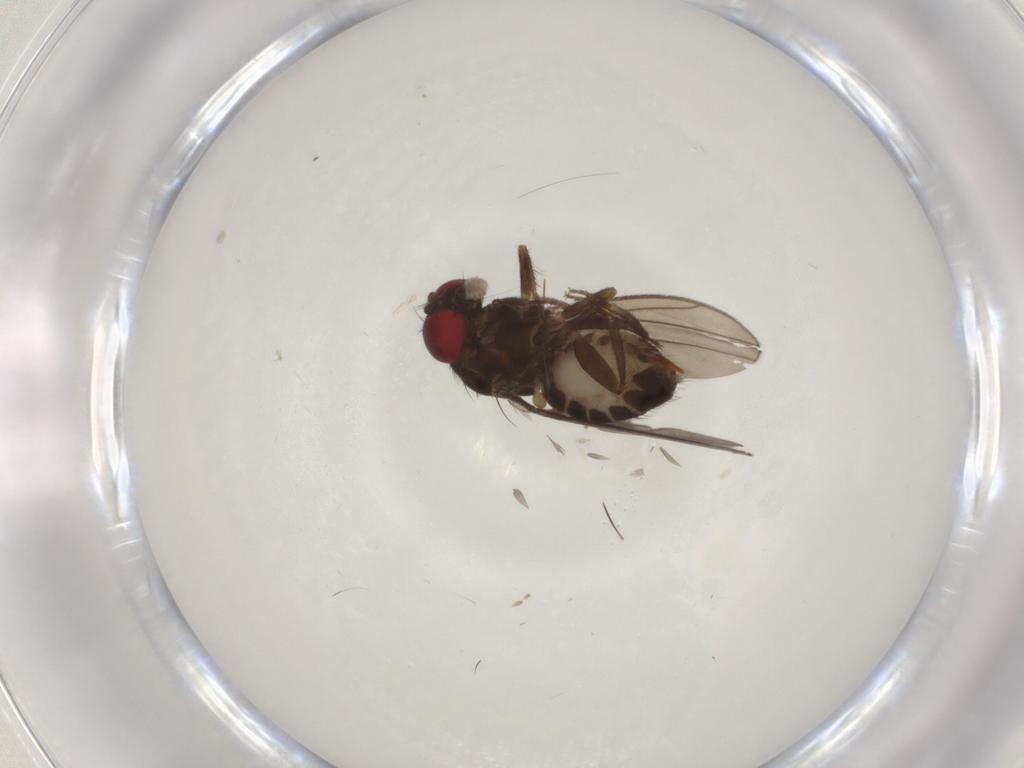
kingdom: Animalia
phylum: Arthropoda
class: Insecta
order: Diptera
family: Drosophilidae
